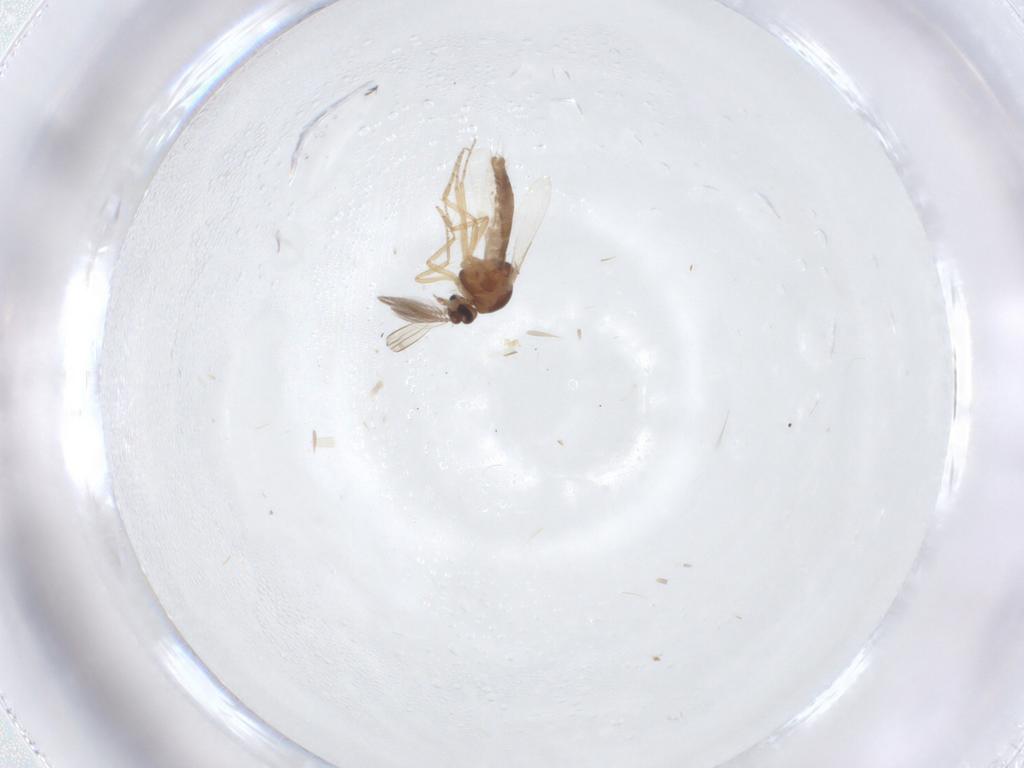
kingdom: Animalia
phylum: Arthropoda
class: Insecta
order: Diptera
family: Ceratopogonidae
